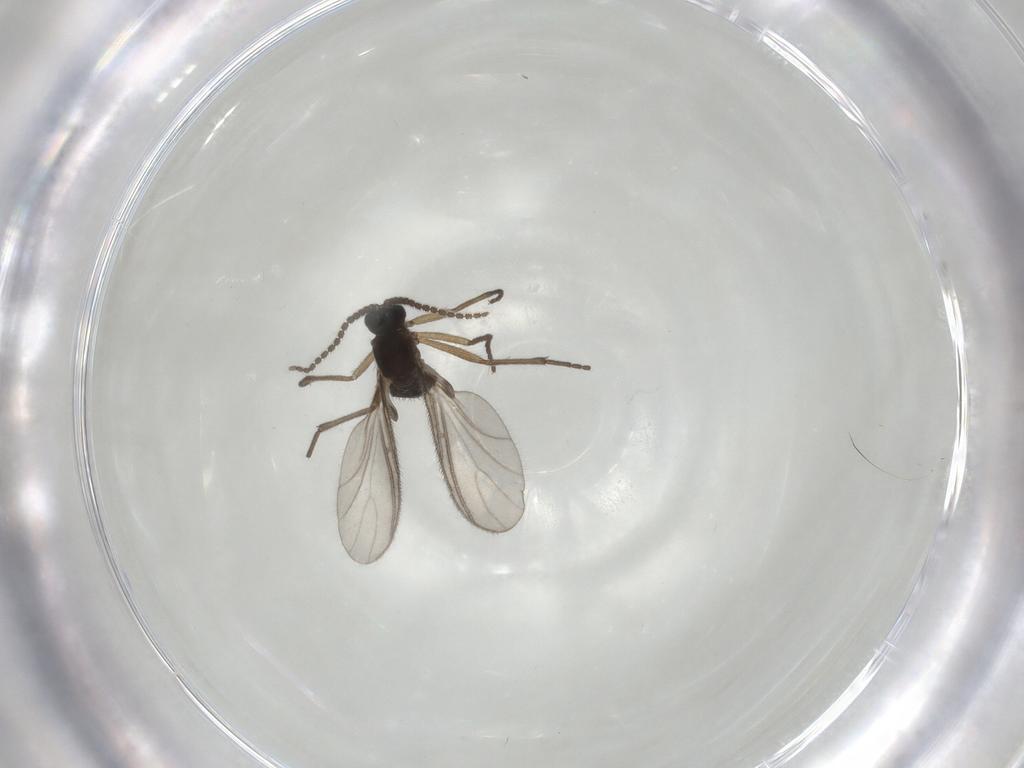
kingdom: Animalia
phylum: Arthropoda
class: Insecta
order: Diptera
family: Sciaridae
